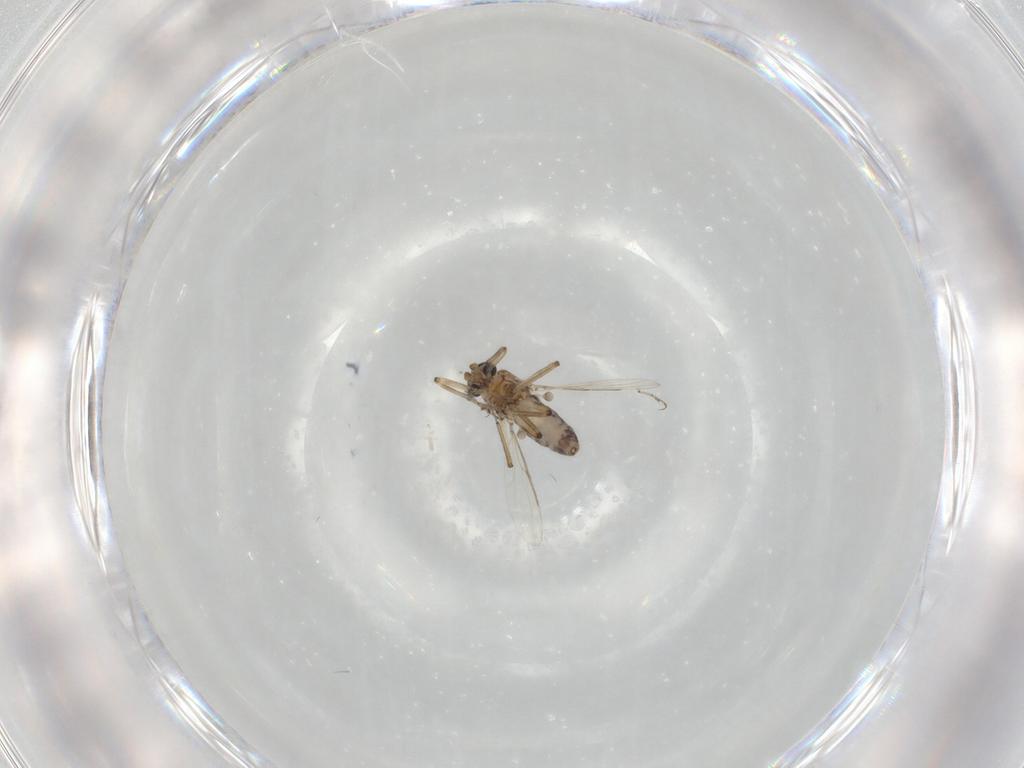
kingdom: Animalia
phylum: Arthropoda
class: Insecta
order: Diptera
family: Ceratopogonidae
